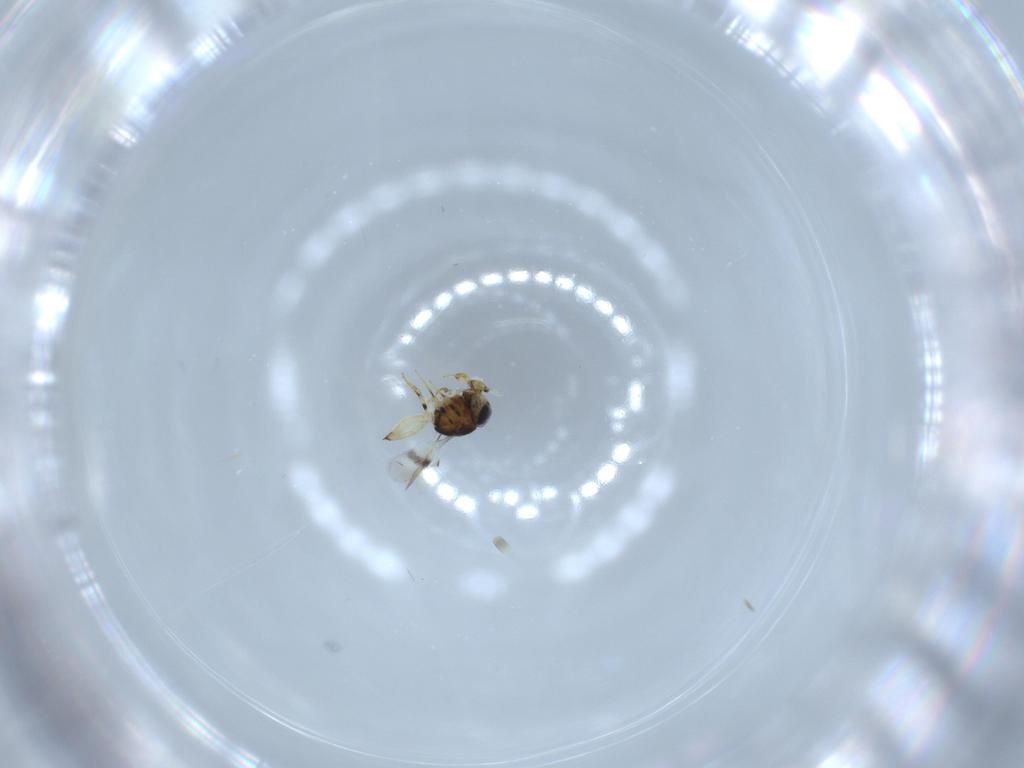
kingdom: Animalia
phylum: Arthropoda
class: Insecta
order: Hymenoptera
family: Scelionidae
